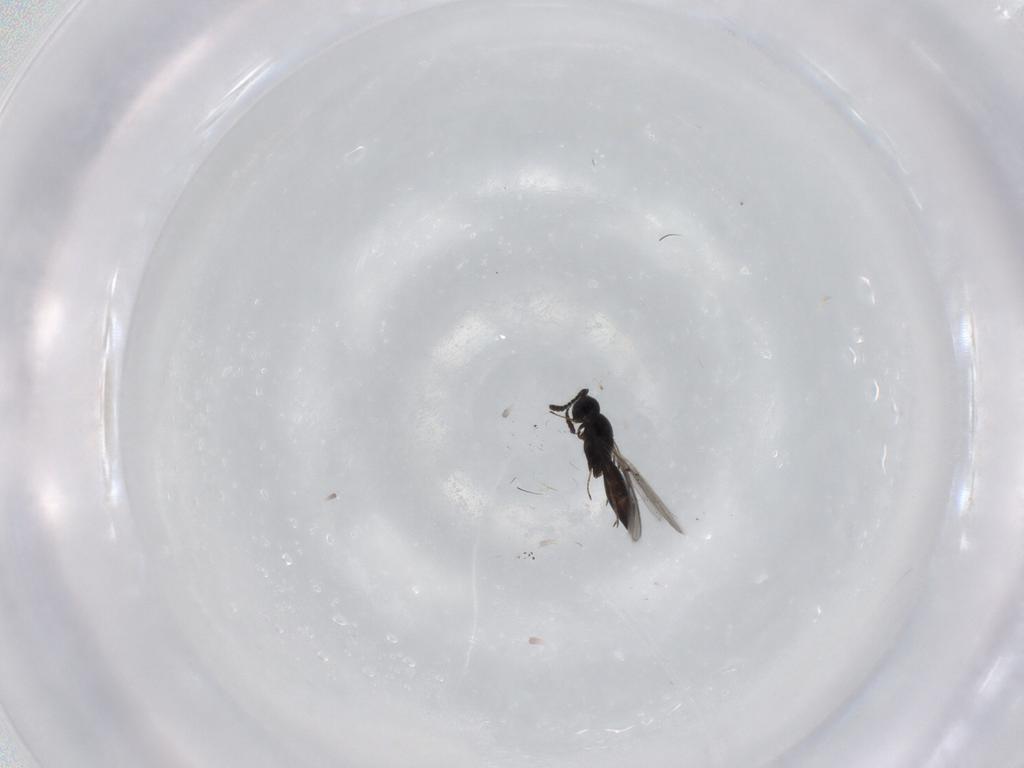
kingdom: Animalia
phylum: Arthropoda
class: Insecta
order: Hymenoptera
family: Scelionidae
